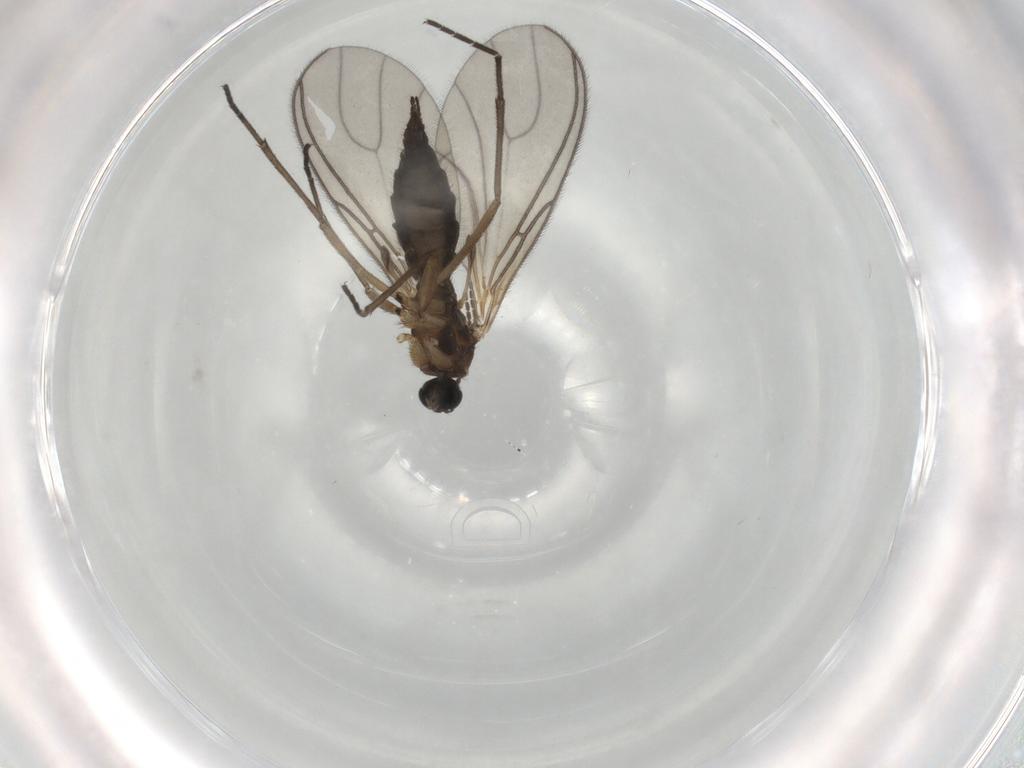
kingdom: Animalia
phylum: Arthropoda
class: Insecta
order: Diptera
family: Sciaridae
